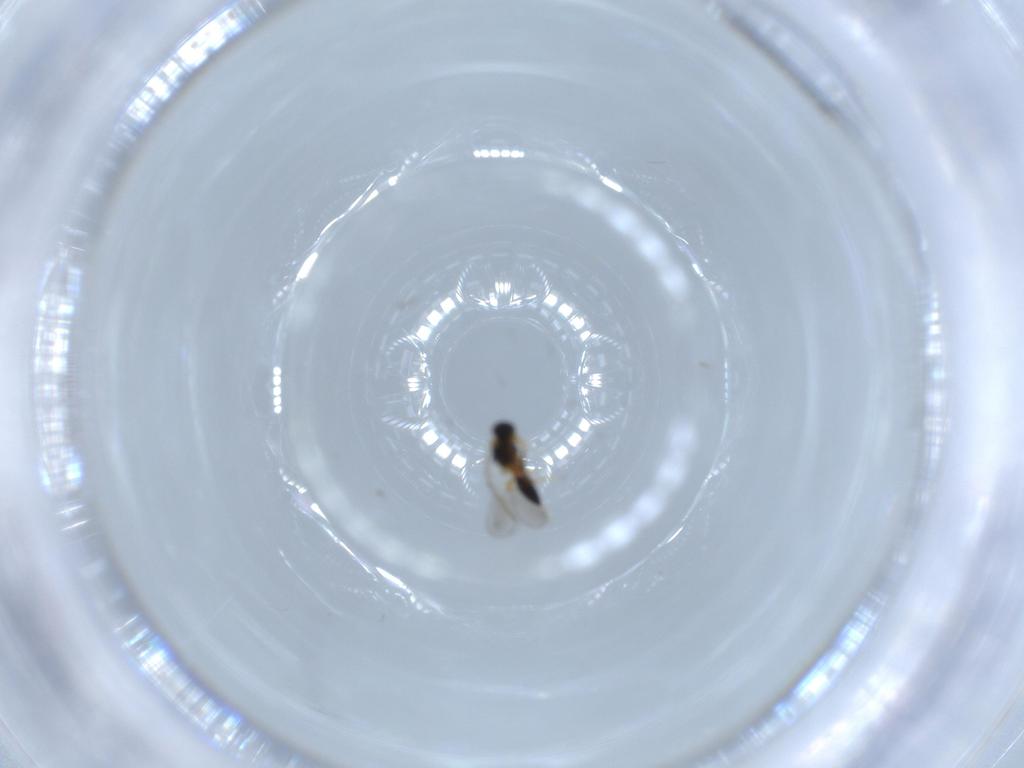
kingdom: Animalia
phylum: Arthropoda
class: Insecta
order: Hymenoptera
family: Platygastridae
